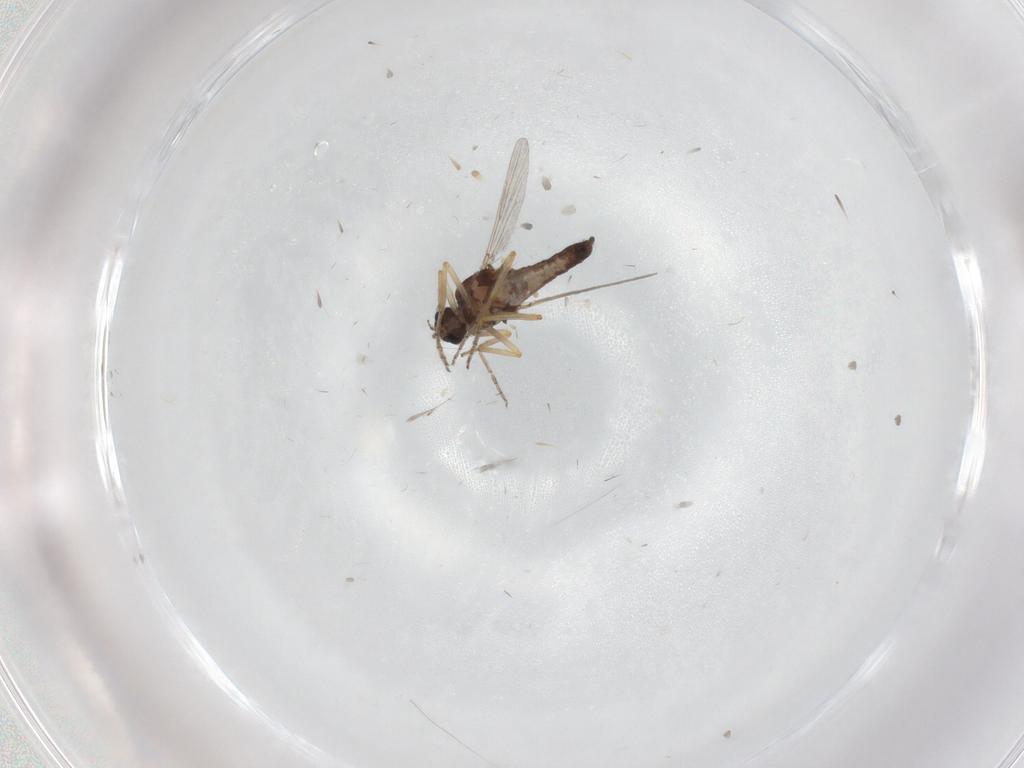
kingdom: Animalia
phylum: Arthropoda
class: Insecta
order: Diptera
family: Ceratopogonidae
